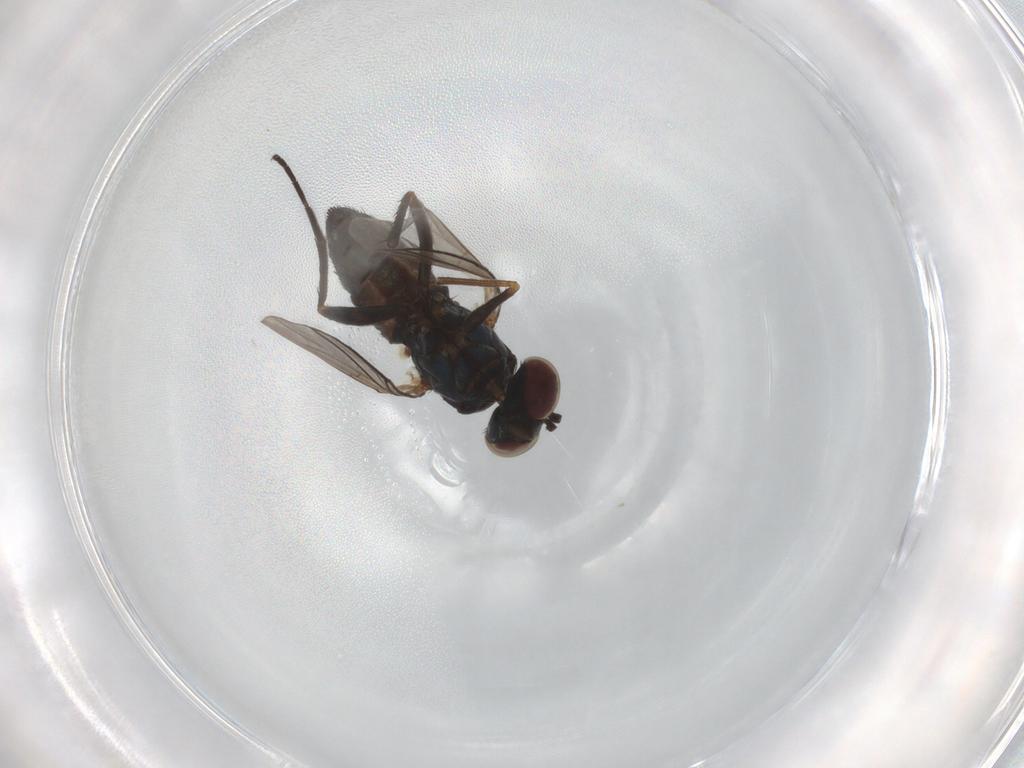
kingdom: Animalia
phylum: Arthropoda
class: Insecta
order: Diptera
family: Dolichopodidae
